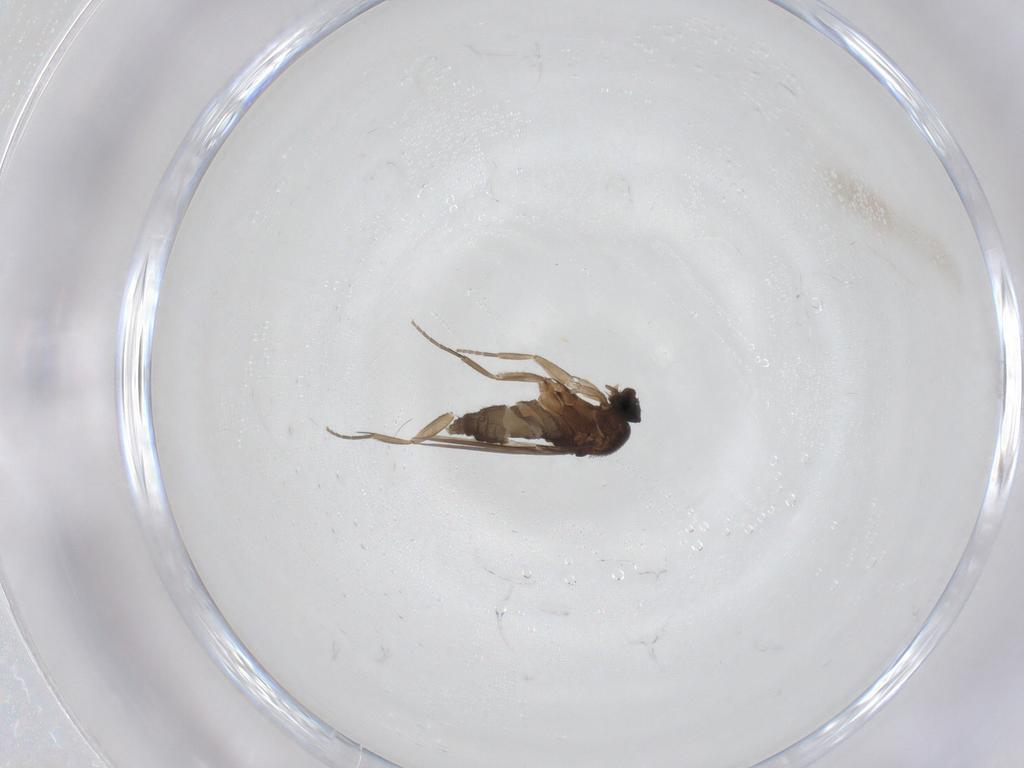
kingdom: Animalia
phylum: Arthropoda
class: Insecta
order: Diptera
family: Phoridae
